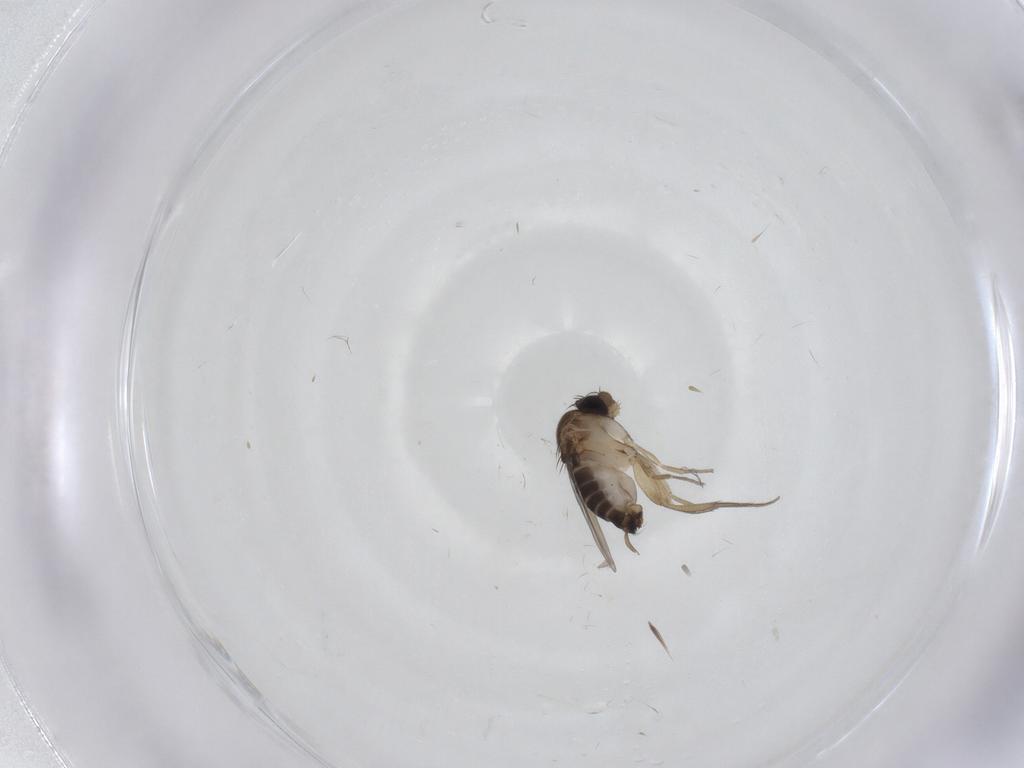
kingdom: Animalia
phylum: Arthropoda
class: Insecta
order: Diptera
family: Phoridae
